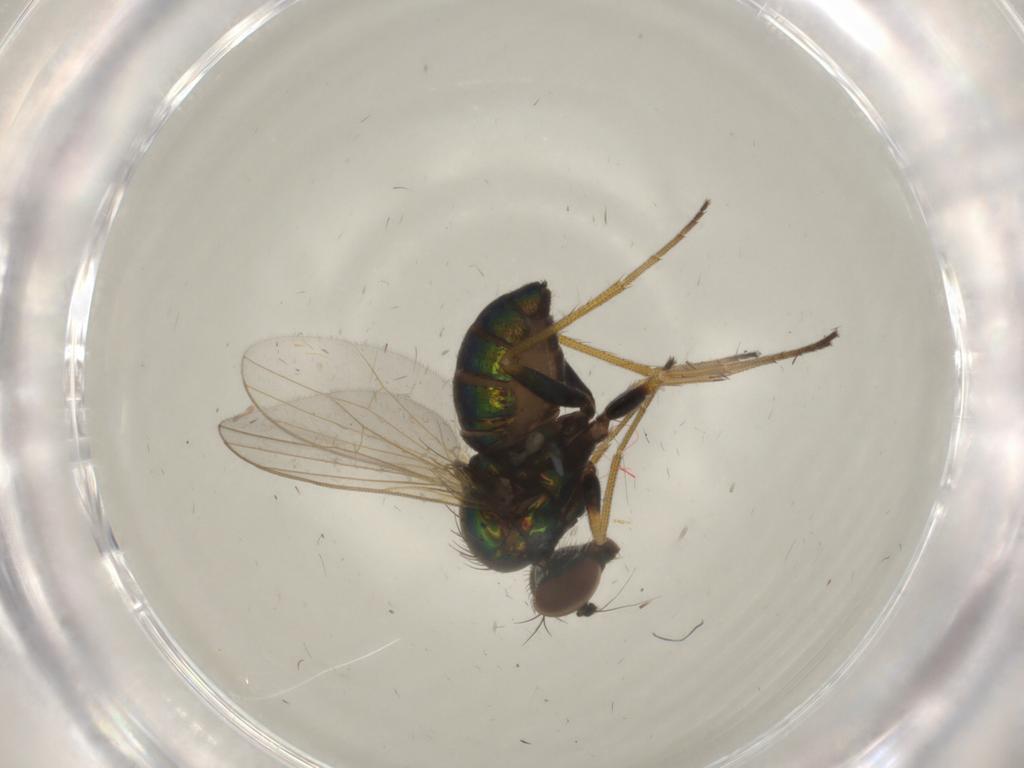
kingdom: Animalia
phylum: Arthropoda
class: Insecta
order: Diptera
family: Dolichopodidae
